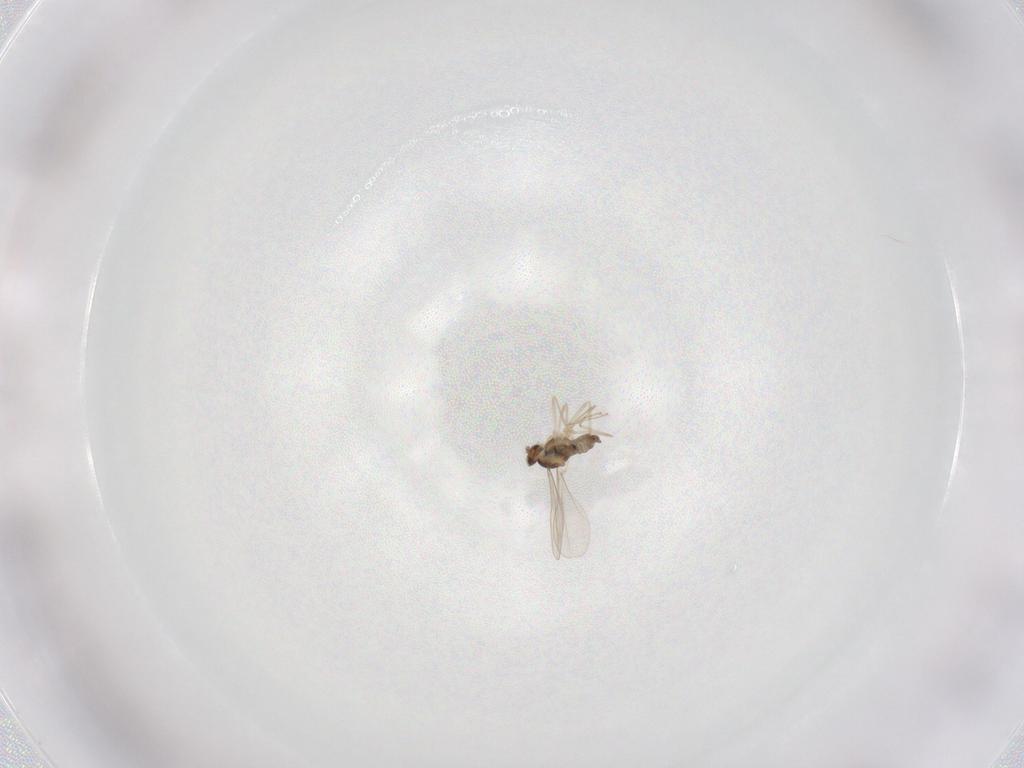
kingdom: Animalia
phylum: Arthropoda
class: Insecta
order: Diptera
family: Cecidomyiidae
